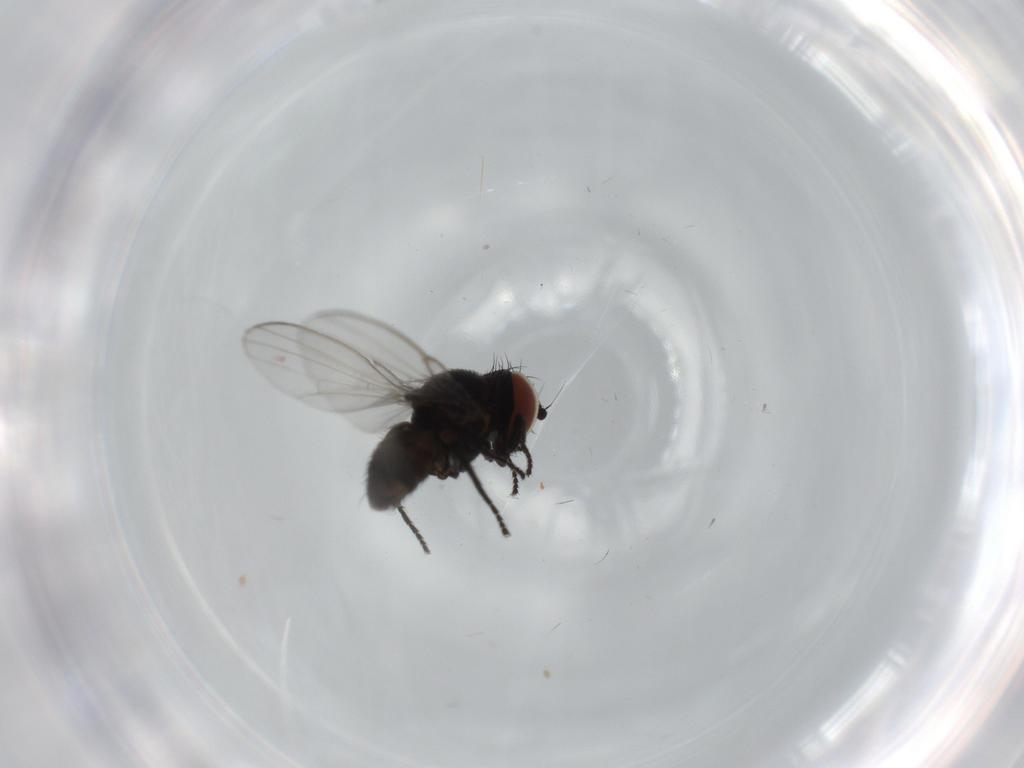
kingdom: Animalia
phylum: Arthropoda
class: Insecta
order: Diptera
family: Milichiidae
